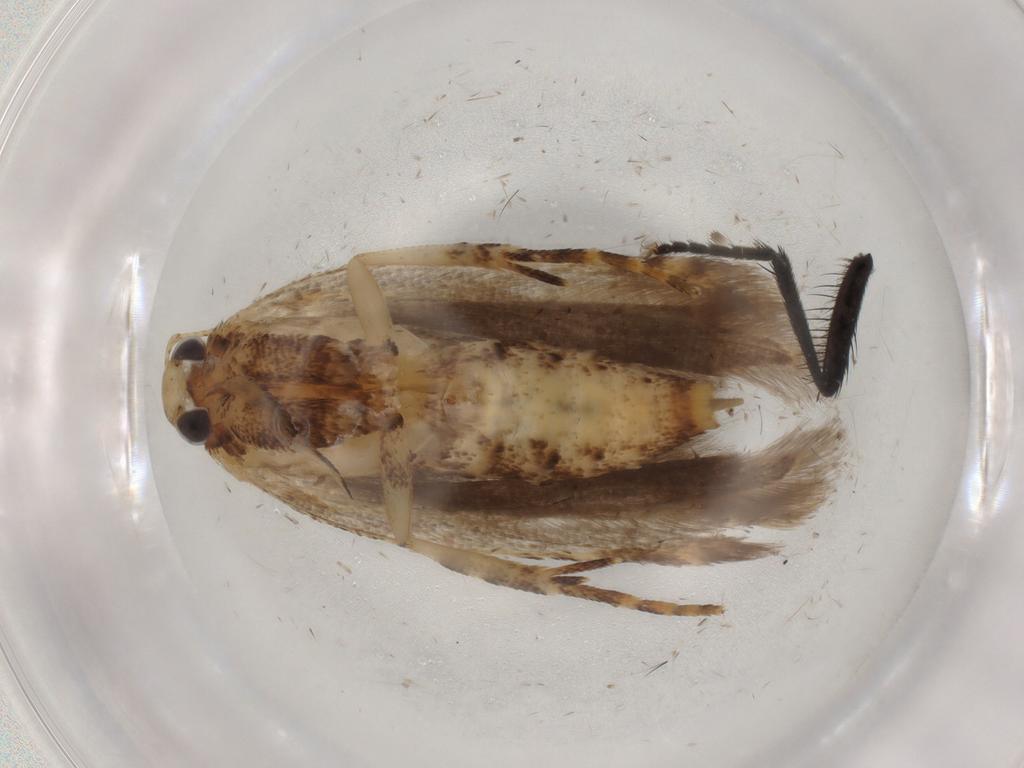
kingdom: Animalia
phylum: Arthropoda
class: Insecta
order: Lepidoptera
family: Gelechiidae
